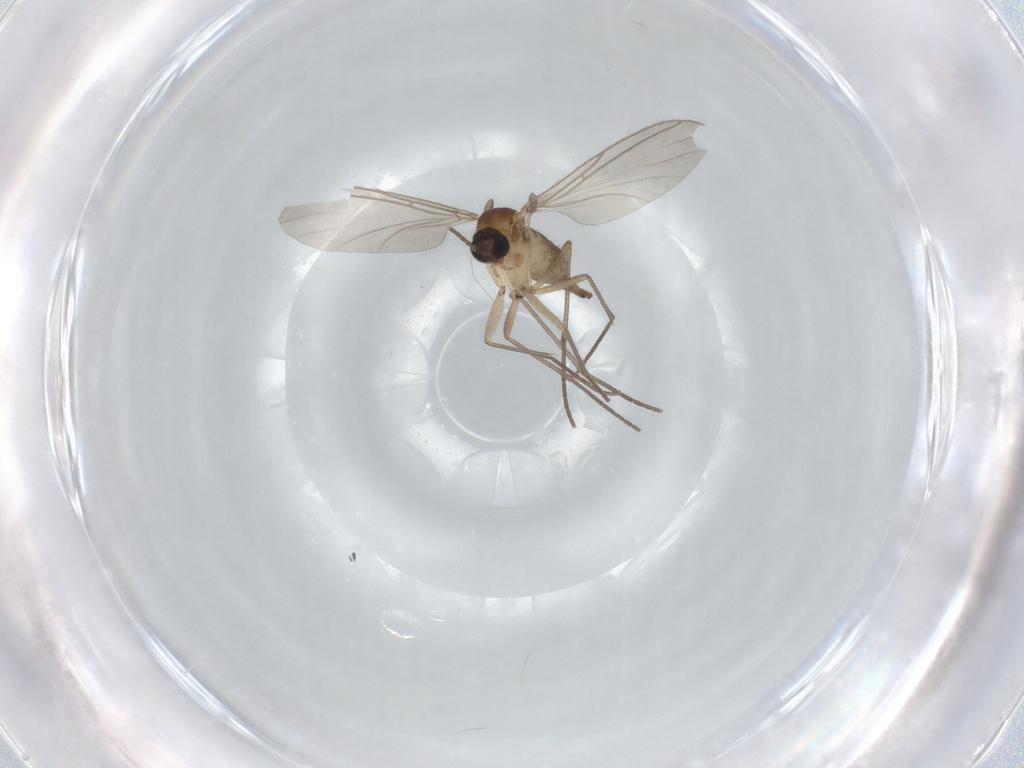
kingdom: Animalia
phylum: Arthropoda
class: Insecta
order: Diptera
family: Sciaridae
